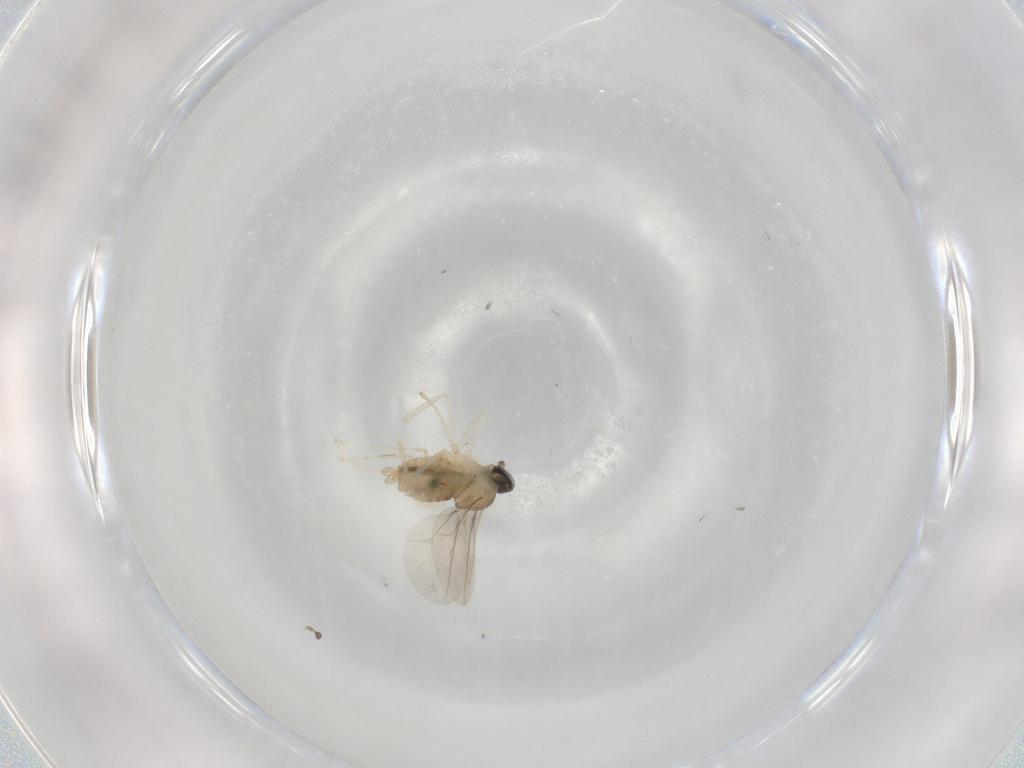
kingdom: Animalia
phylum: Arthropoda
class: Insecta
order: Diptera
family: Cecidomyiidae
